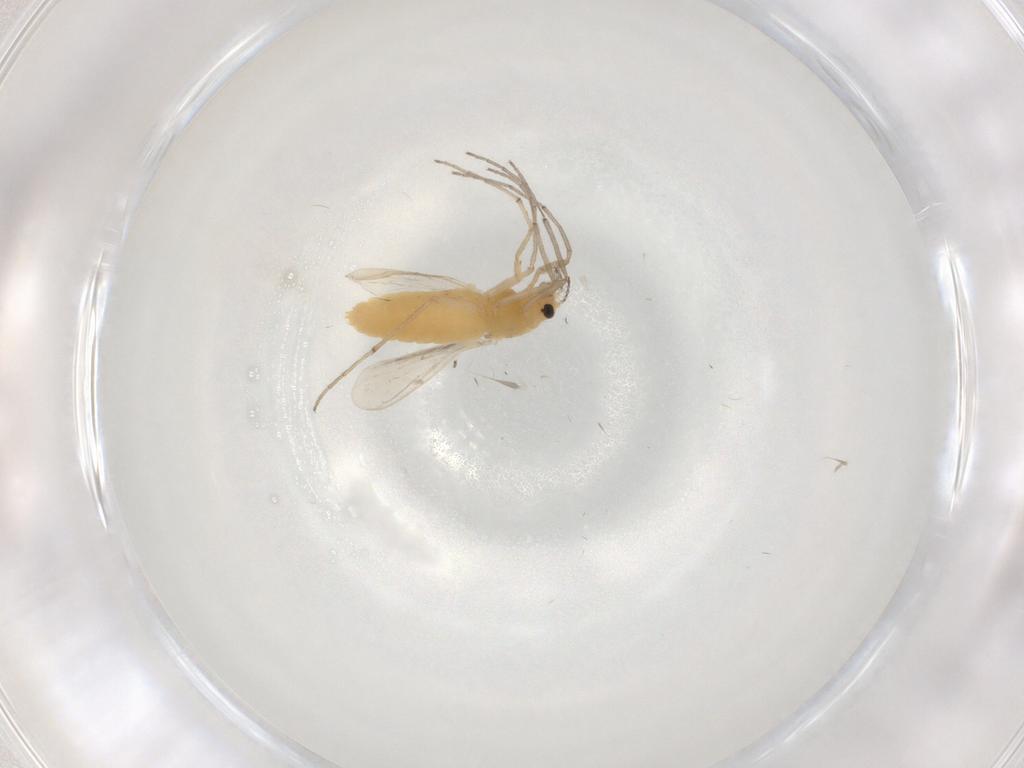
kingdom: Animalia
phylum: Arthropoda
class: Insecta
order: Diptera
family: Chironomidae
